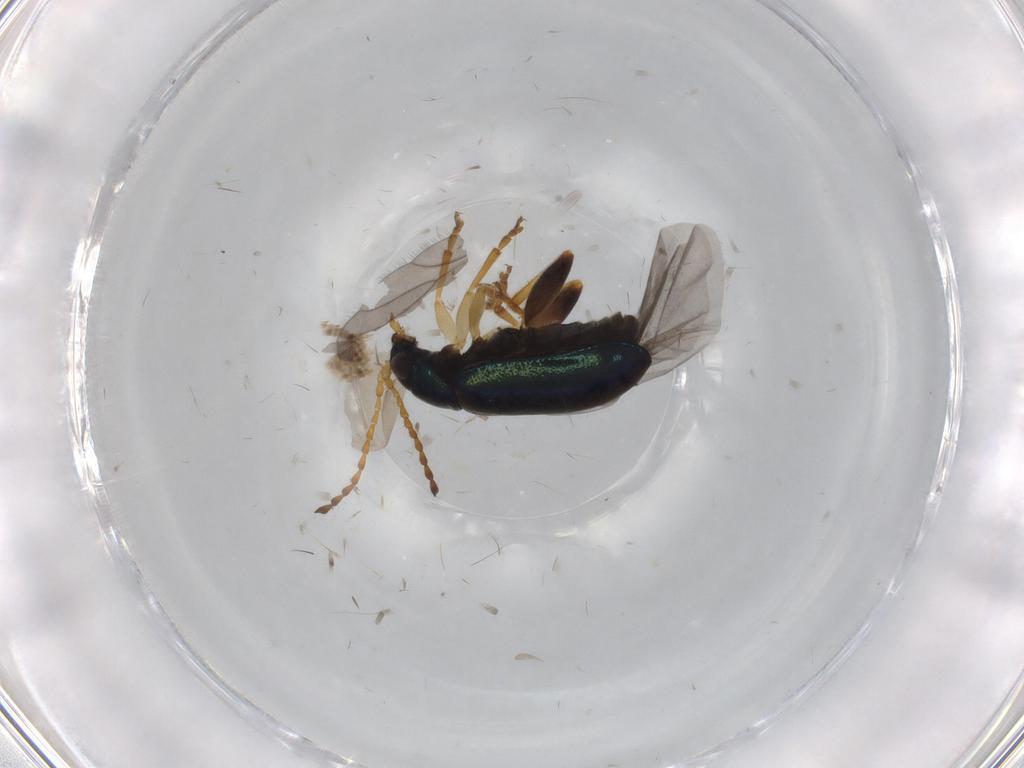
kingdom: Animalia
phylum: Arthropoda
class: Insecta
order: Coleoptera
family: Chrysomelidae
